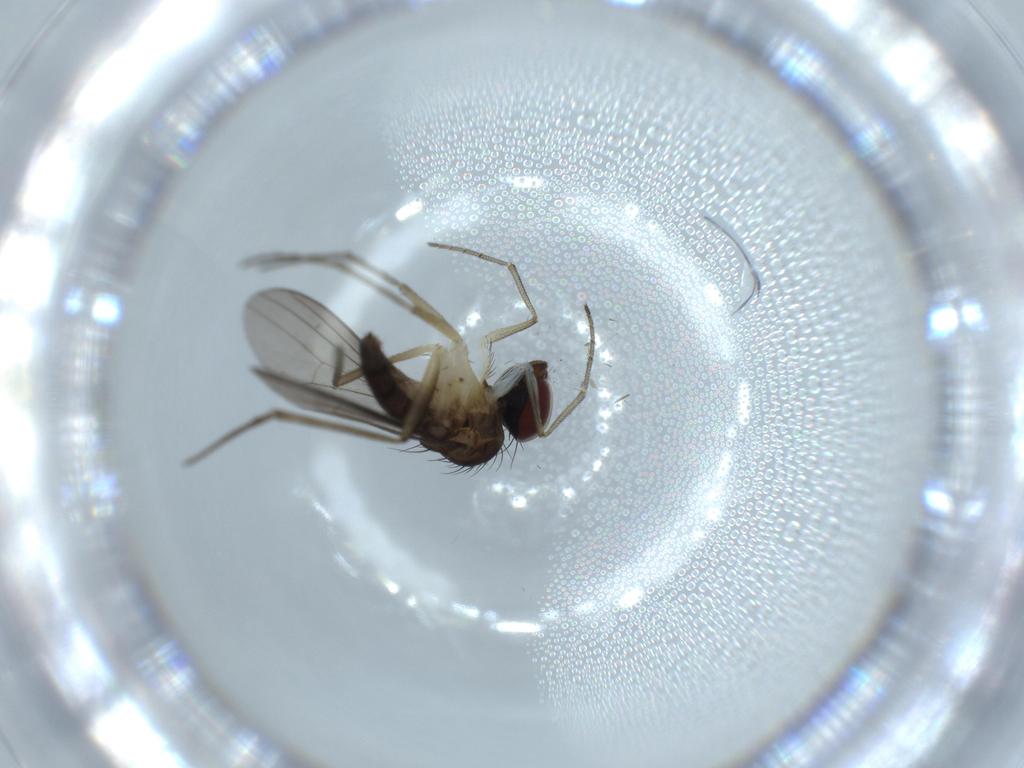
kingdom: Animalia
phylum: Arthropoda
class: Insecta
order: Diptera
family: Dolichopodidae
